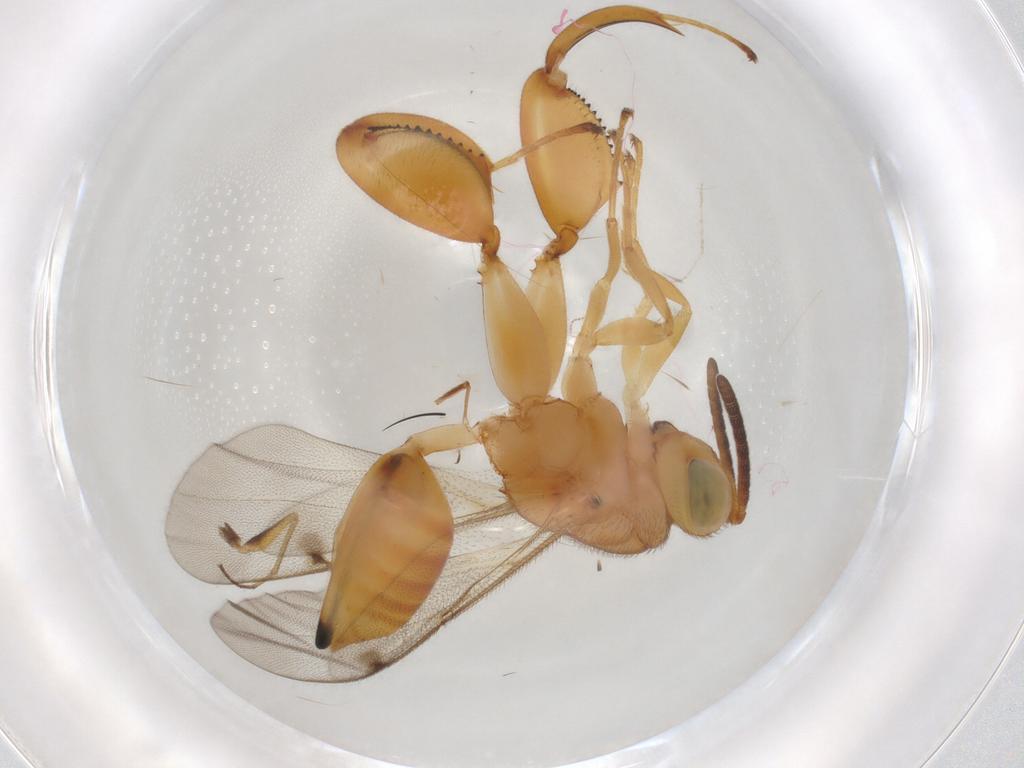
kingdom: Animalia
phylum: Arthropoda
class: Insecta
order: Hymenoptera
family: Chalcididae
